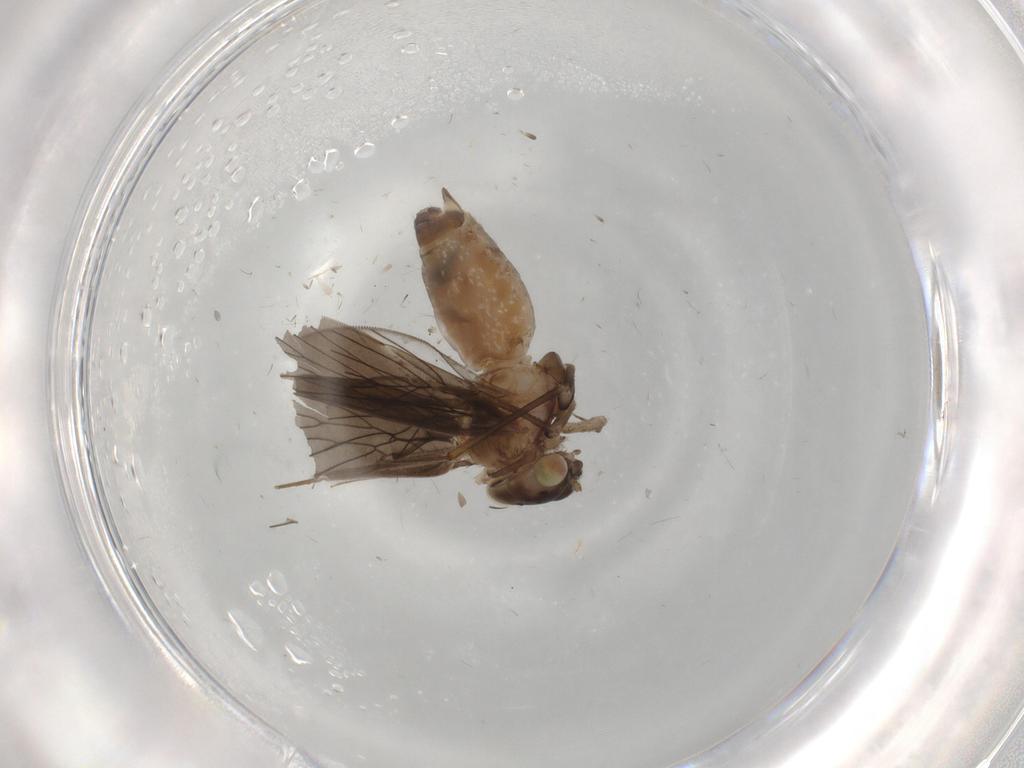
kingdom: Animalia
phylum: Arthropoda
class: Insecta
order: Psocodea
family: Lepidopsocidae
